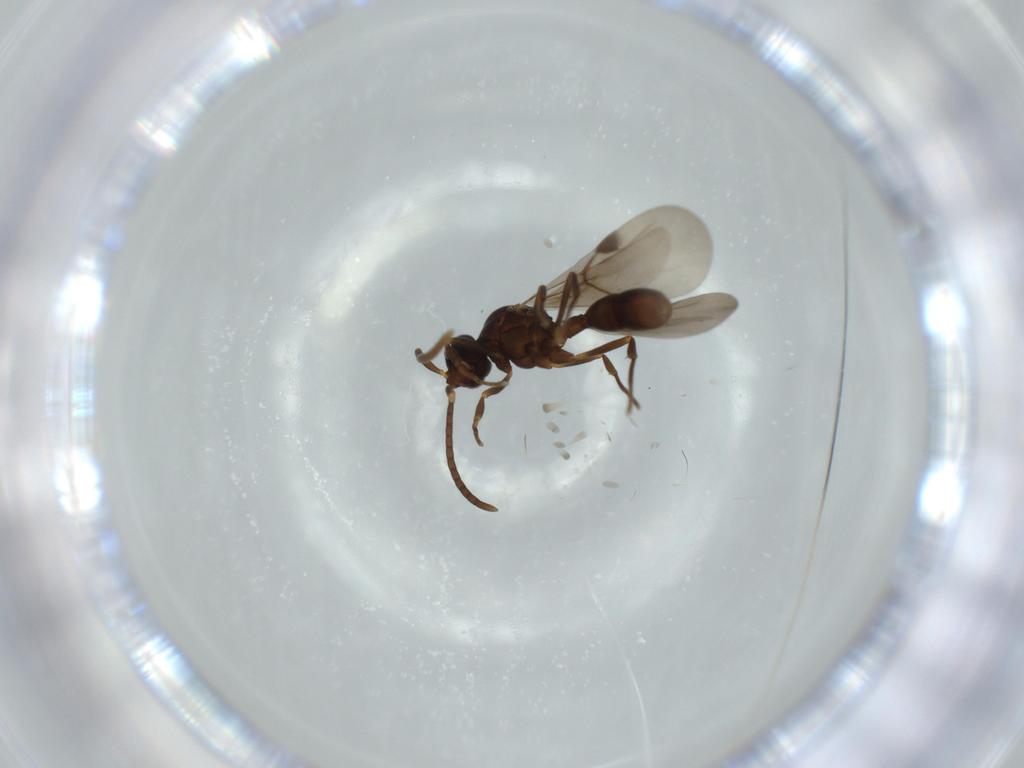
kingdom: Animalia
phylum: Arthropoda
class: Insecta
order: Hymenoptera
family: Formicidae
